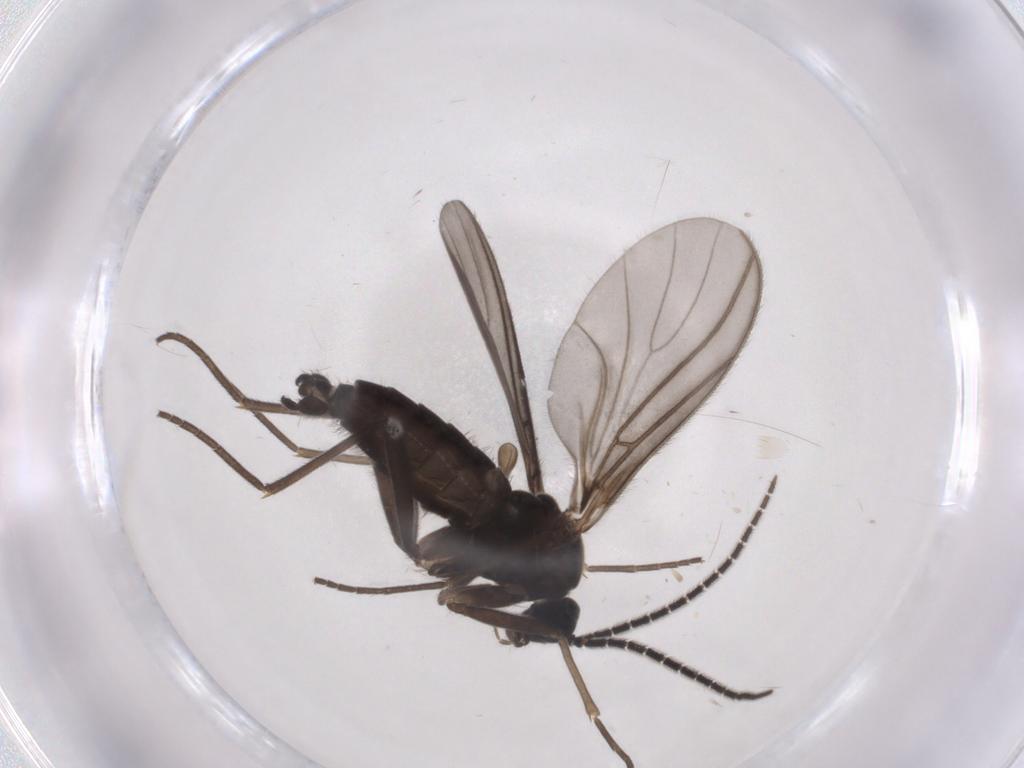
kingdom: Animalia
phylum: Arthropoda
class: Insecta
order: Diptera
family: Sciaridae
